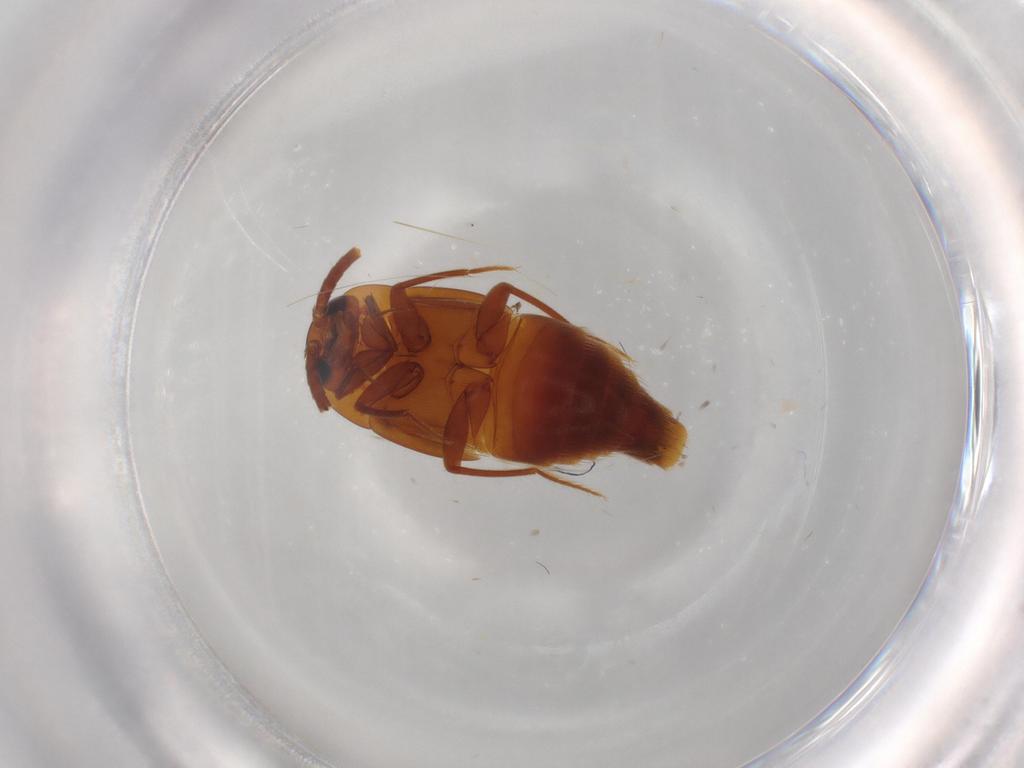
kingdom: Animalia
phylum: Arthropoda
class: Insecta
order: Coleoptera
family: Staphylinidae
